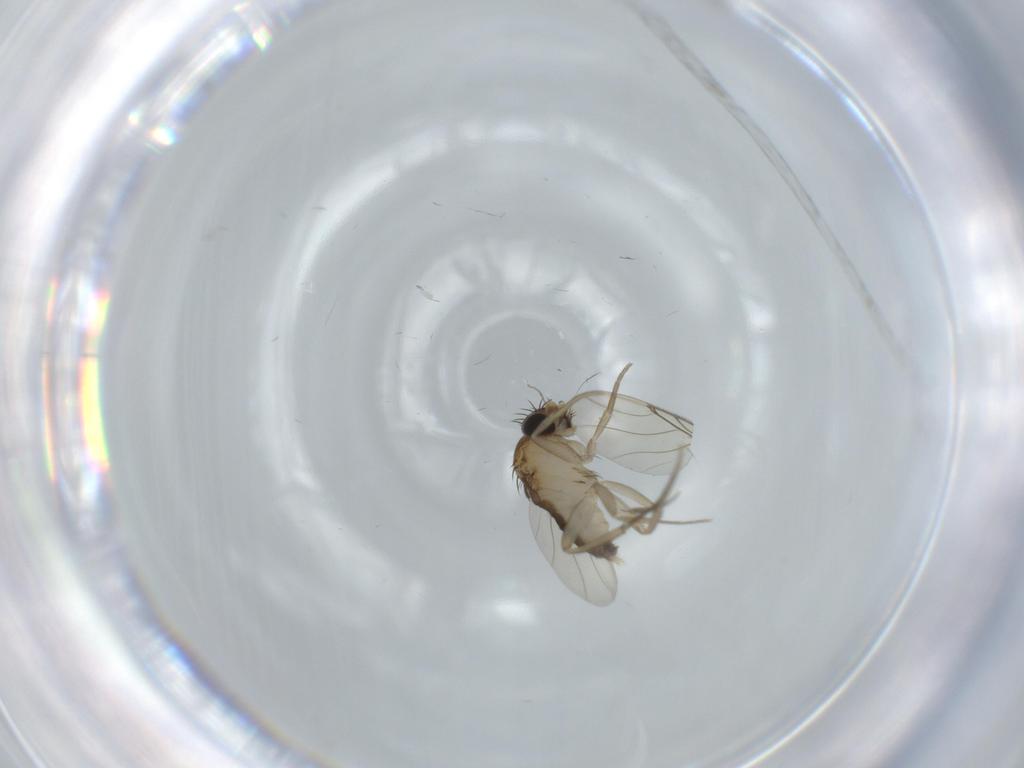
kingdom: Animalia
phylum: Arthropoda
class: Insecta
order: Diptera
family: Phoridae
